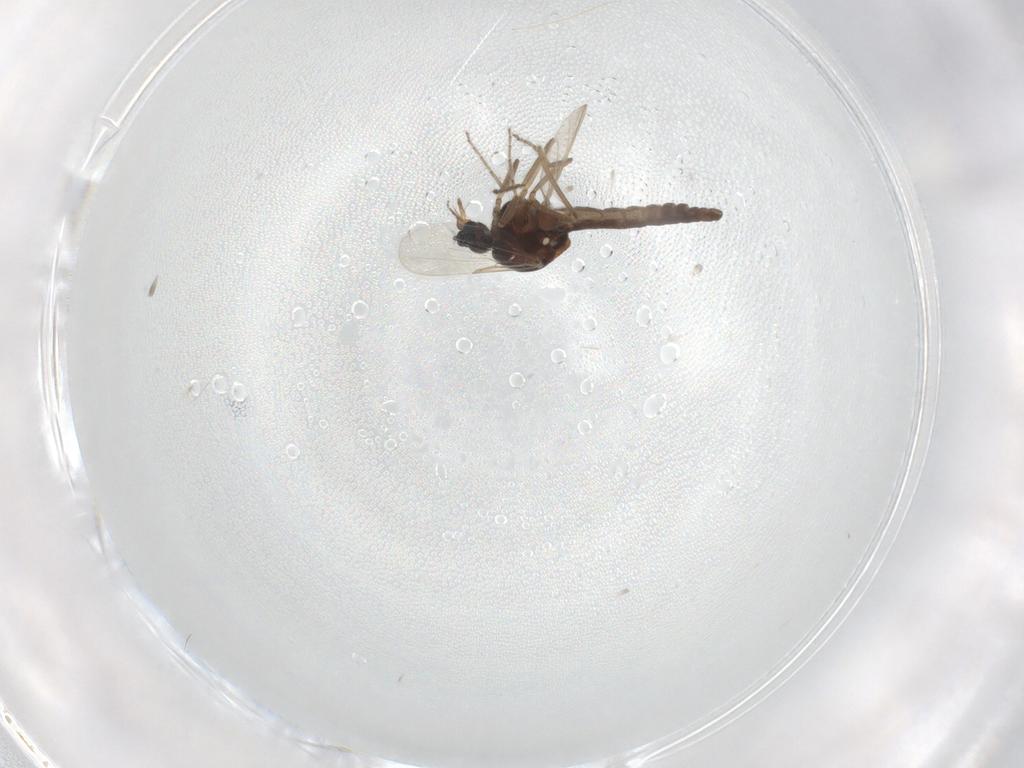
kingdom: Animalia
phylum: Arthropoda
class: Insecta
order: Diptera
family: Ceratopogonidae
